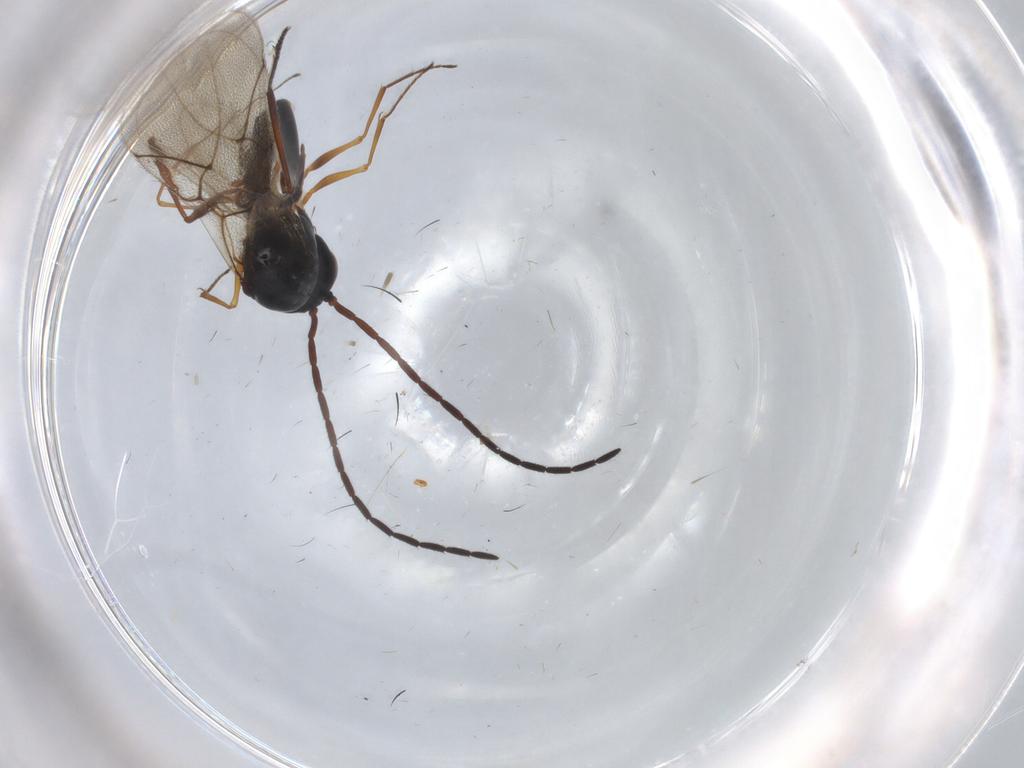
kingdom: Animalia
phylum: Arthropoda
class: Insecta
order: Hymenoptera
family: Figitidae
